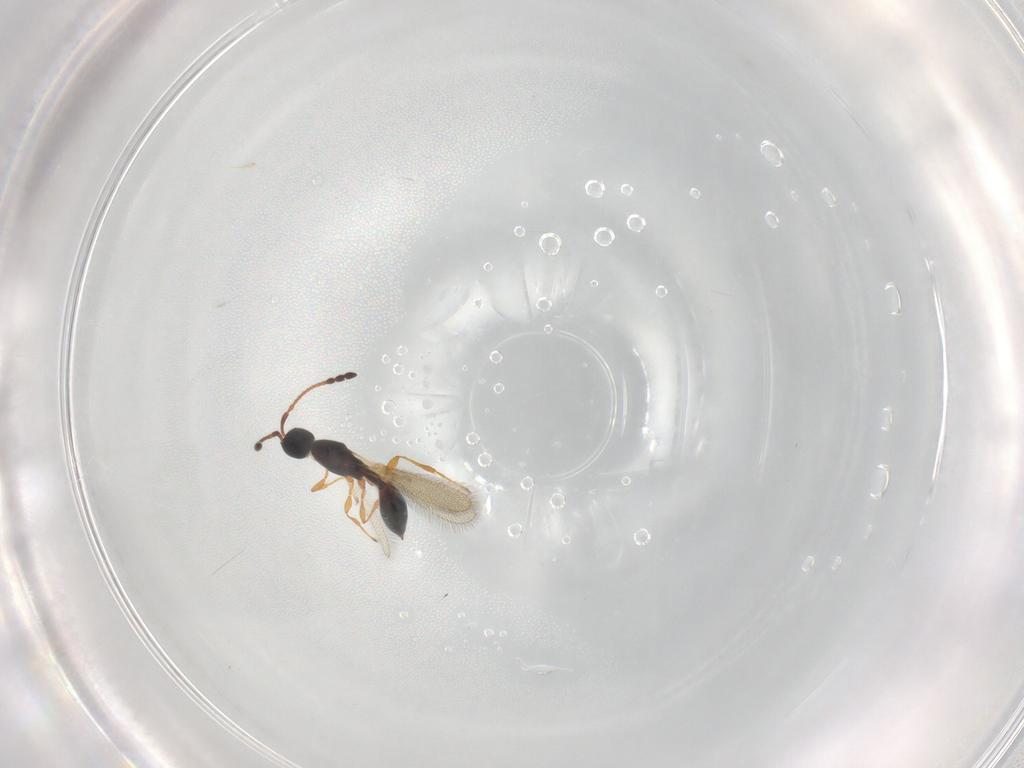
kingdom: Animalia
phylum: Arthropoda
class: Insecta
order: Hymenoptera
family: Diapriidae
